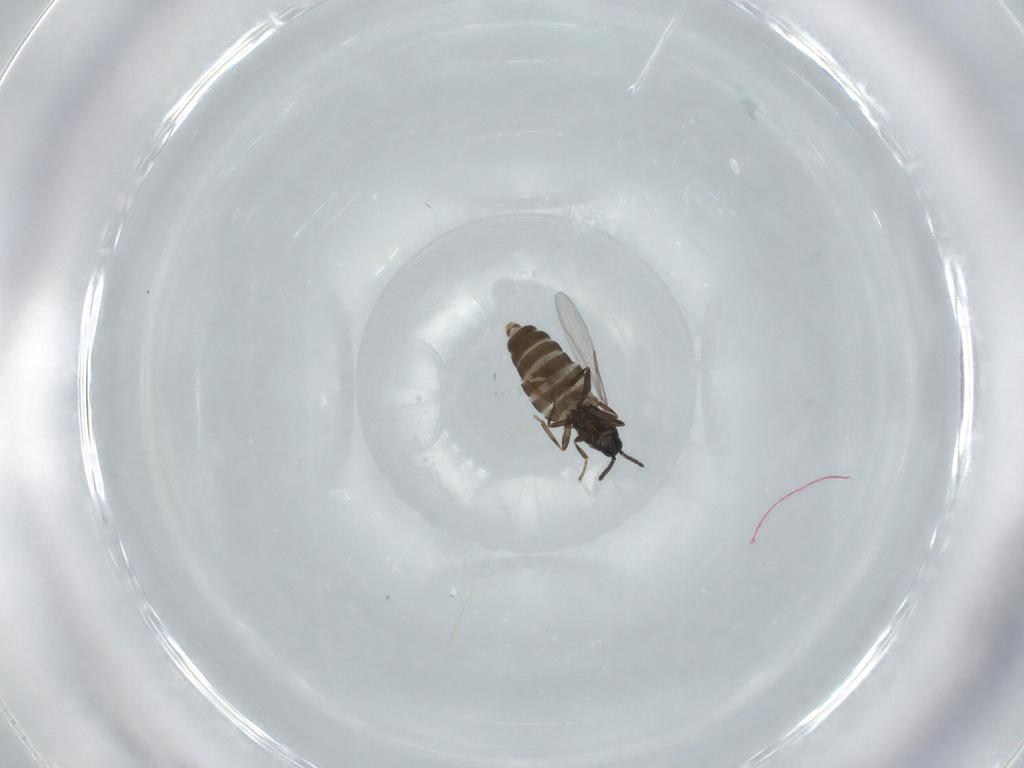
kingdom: Animalia
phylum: Arthropoda
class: Insecta
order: Diptera
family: Scatopsidae
